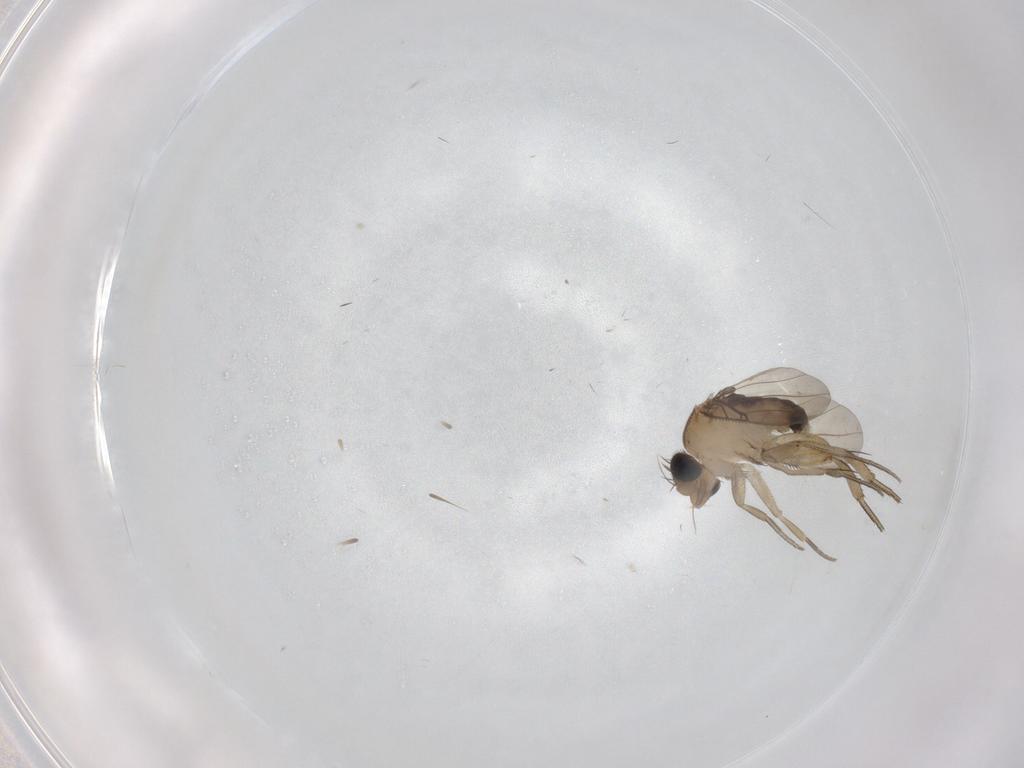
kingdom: Animalia
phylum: Arthropoda
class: Insecta
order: Diptera
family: Phoridae
